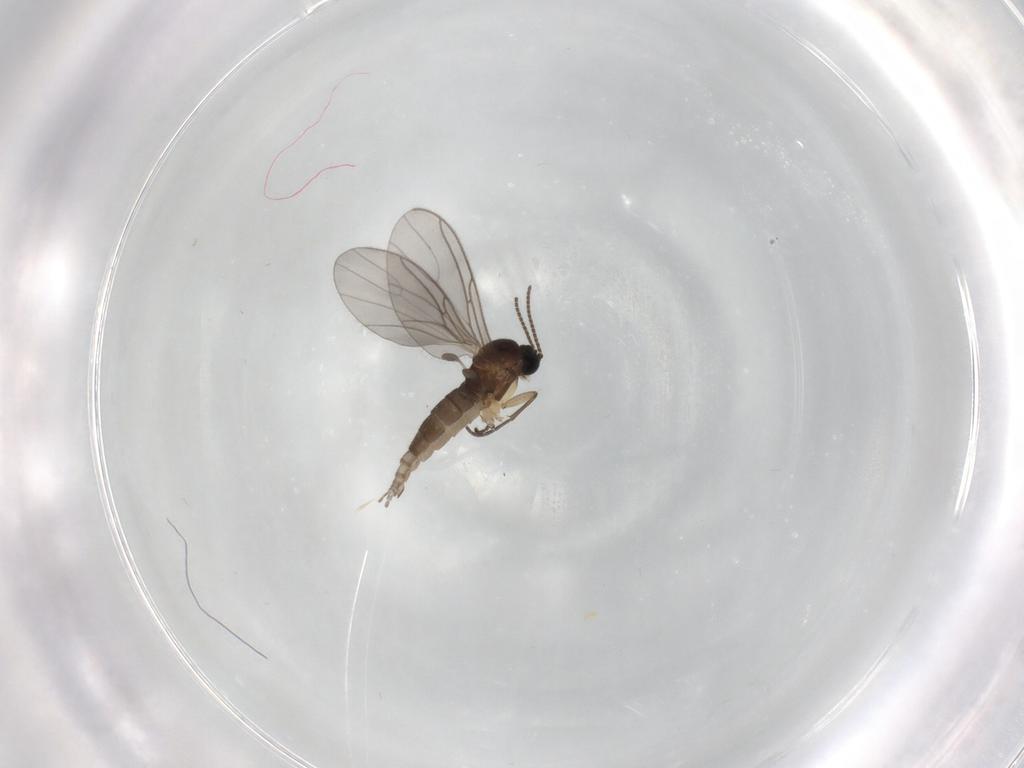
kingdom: Animalia
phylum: Arthropoda
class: Insecta
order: Diptera
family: Sciaridae
